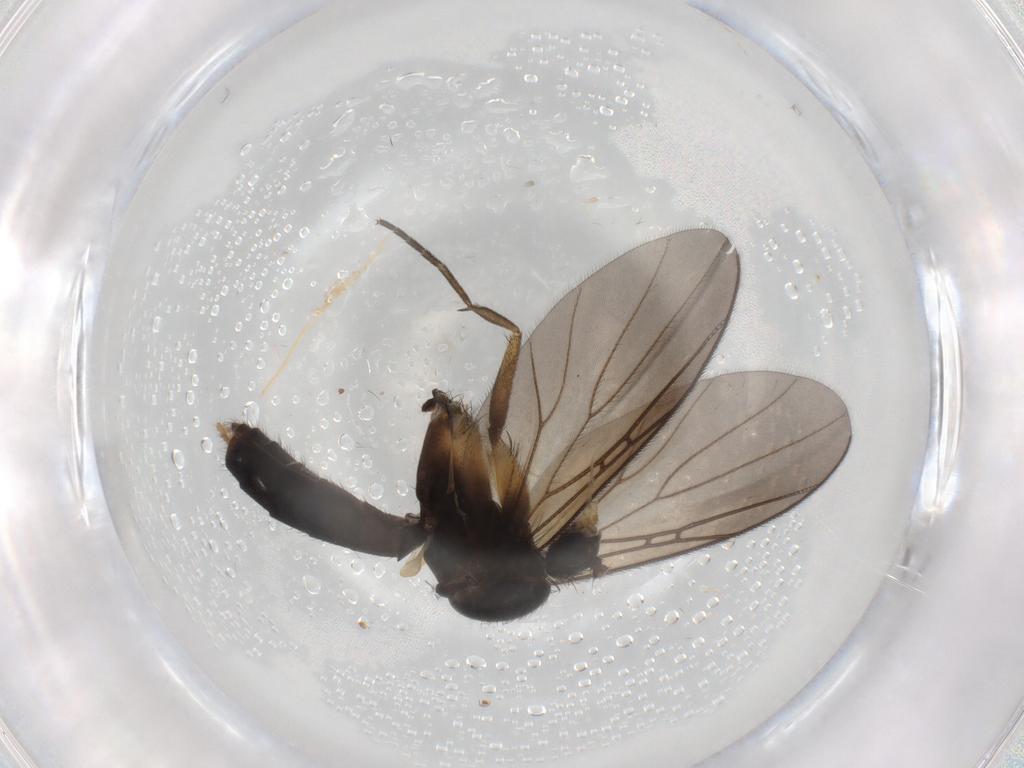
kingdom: Animalia
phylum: Arthropoda
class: Insecta
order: Diptera
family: Mycetophilidae
